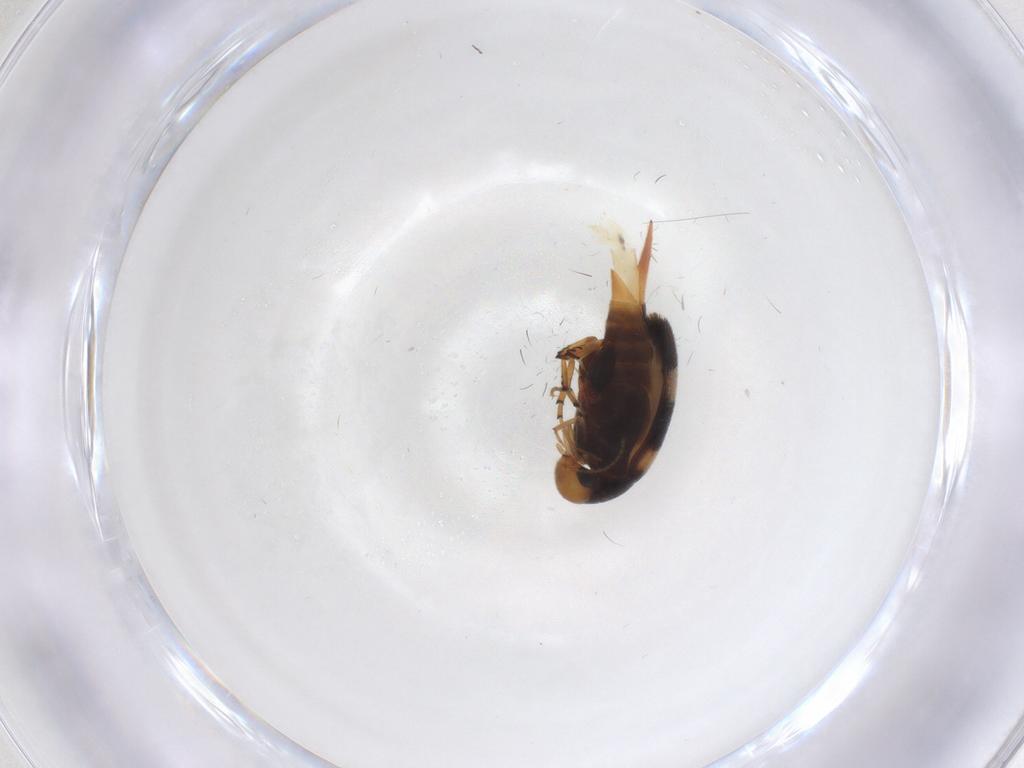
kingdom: Animalia
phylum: Arthropoda
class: Insecta
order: Coleoptera
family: Mordellidae
